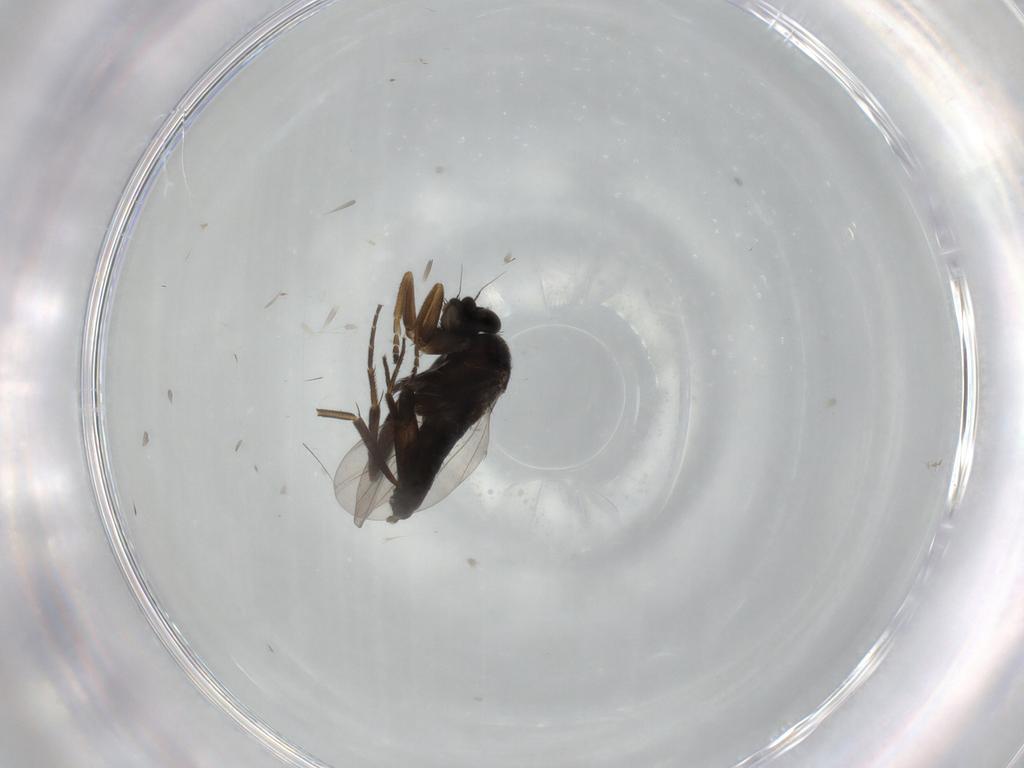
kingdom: Animalia
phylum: Arthropoda
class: Insecta
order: Diptera
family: Phoridae
